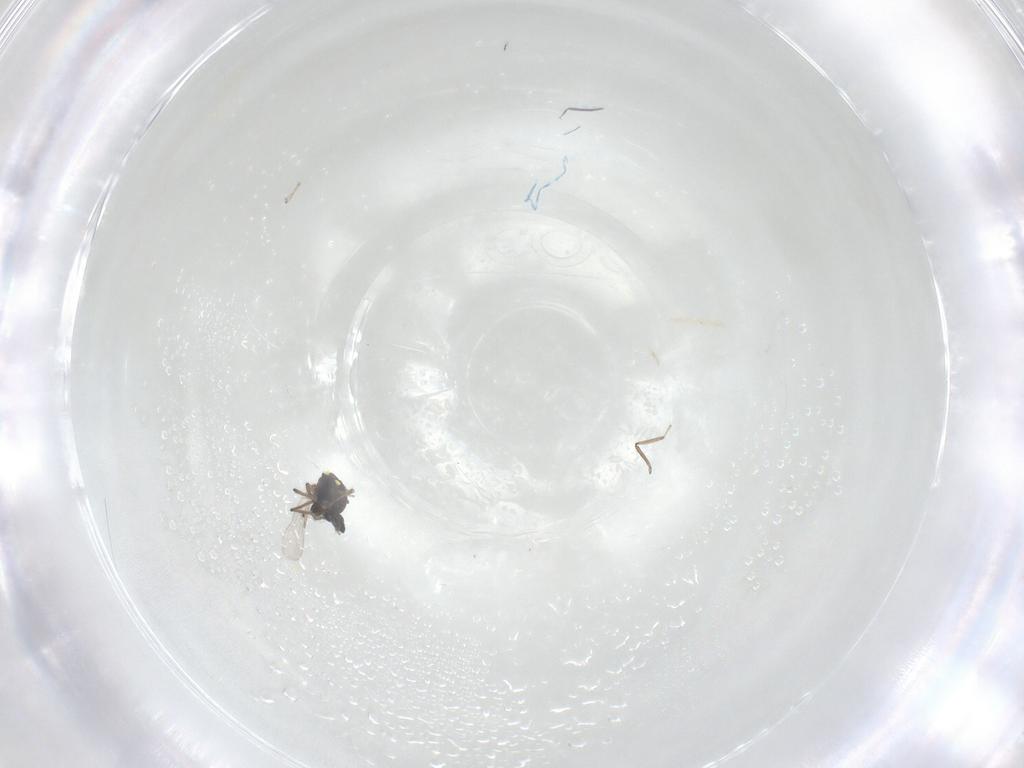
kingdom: Animalia
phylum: Arthropoda
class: Insecta
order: Diptera
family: Ceratopogonidae
